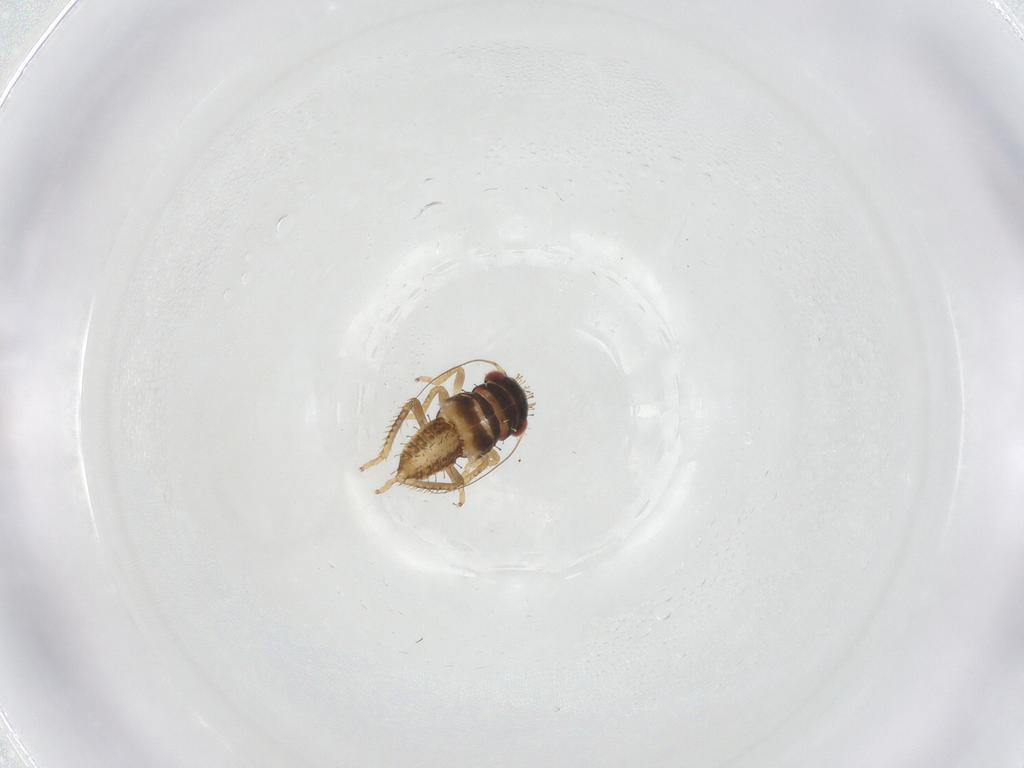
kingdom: Animalia
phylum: Arthropoda
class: Insecta
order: Hemiptera
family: Cicadellidae
